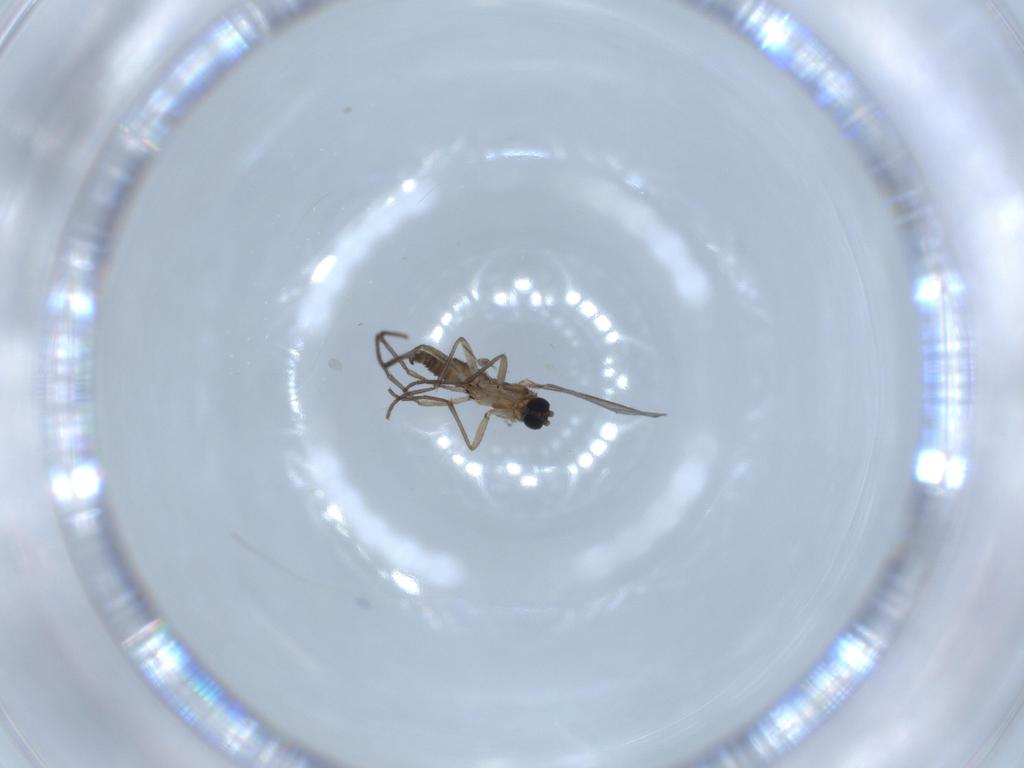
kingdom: Animalia
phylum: Arthropoda
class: Insecta
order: Diptera
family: Sciaridae
